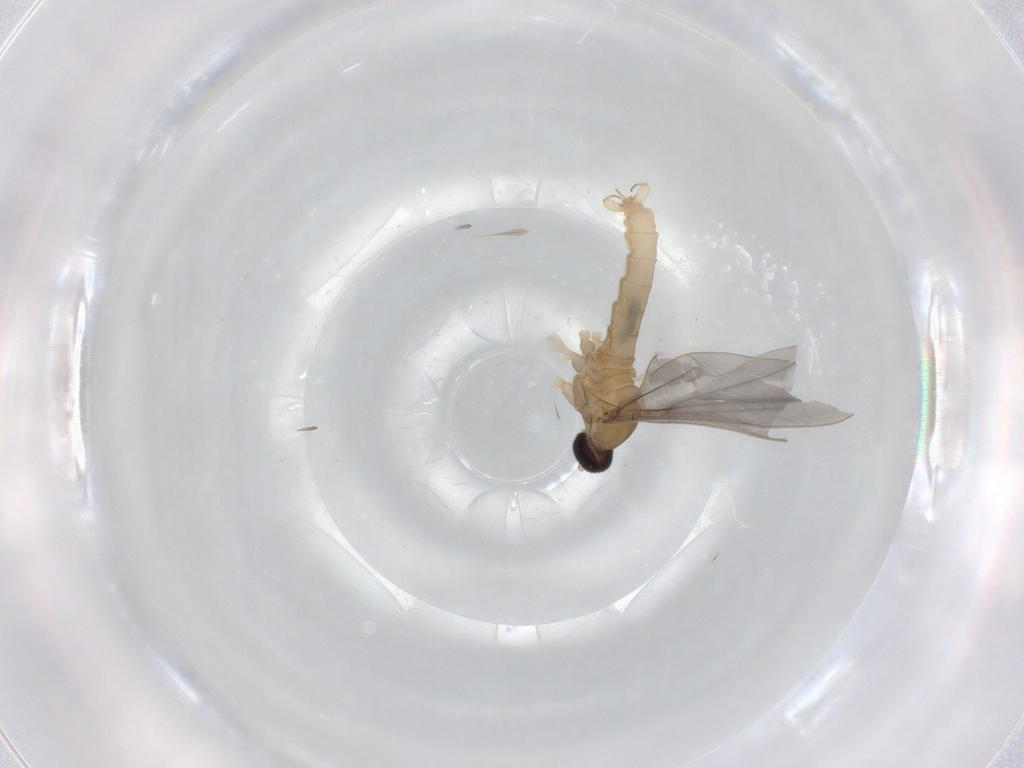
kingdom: Animalia
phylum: Arthropoda
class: Insecta
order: Diptera
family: Cecidomyiidae
